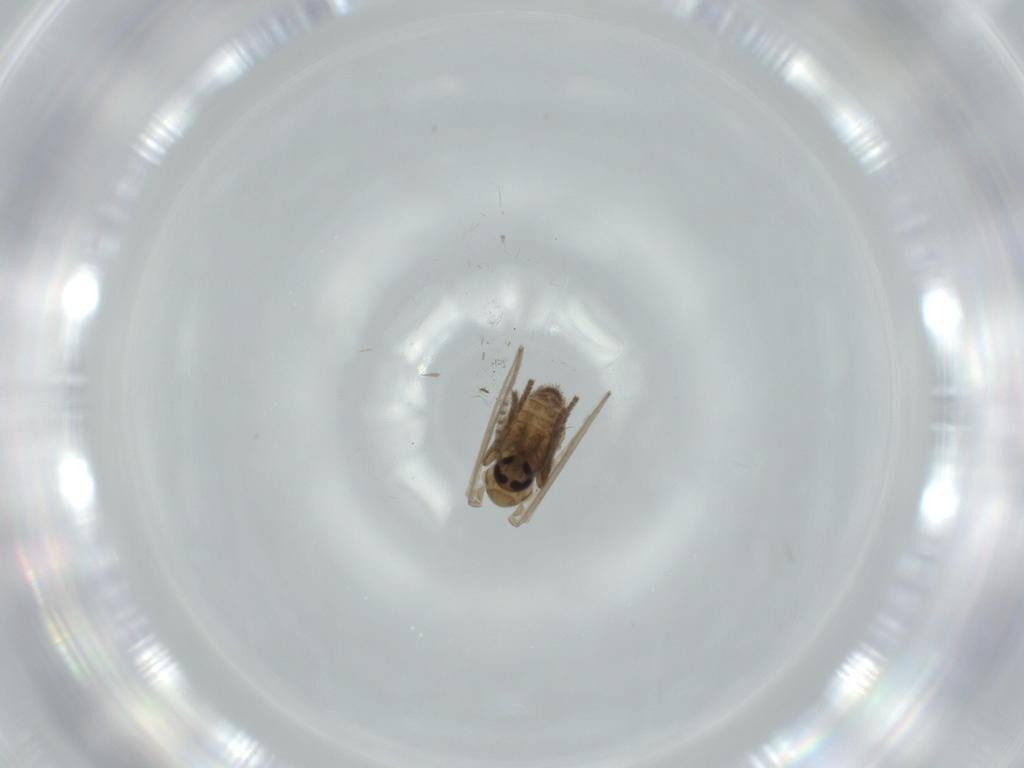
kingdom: Animalia
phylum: Arthropoda
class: Insecta
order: Diptera
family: Psychodidae
